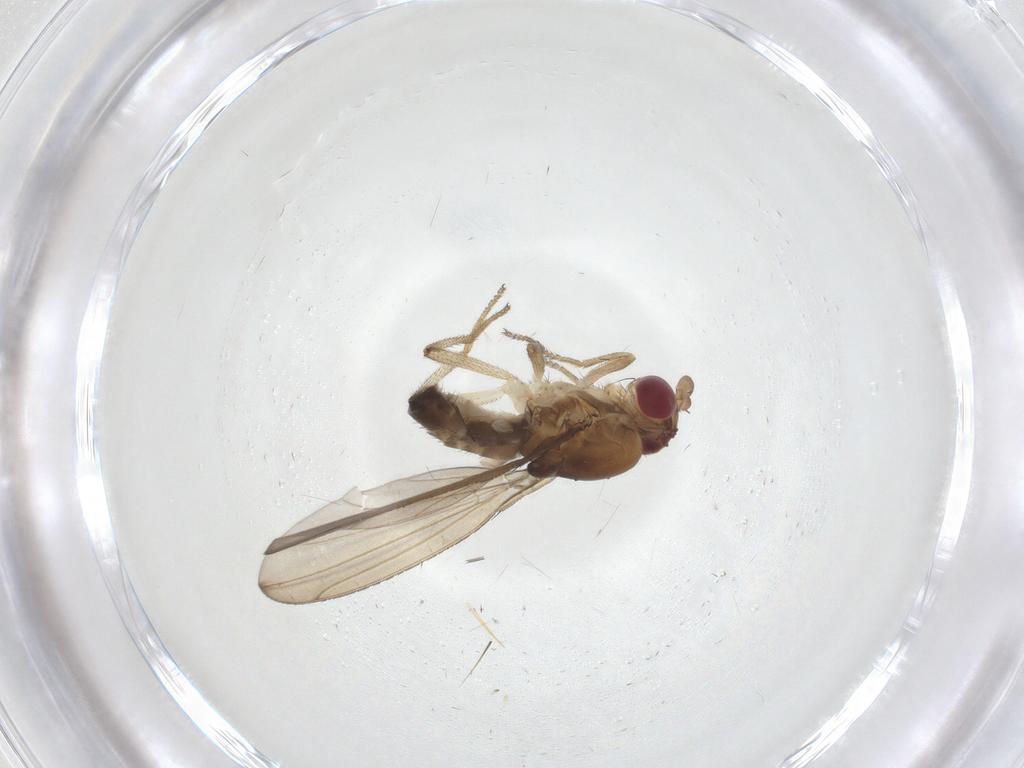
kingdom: Animalia
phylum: Arthropoda
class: Insecta
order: Diptera
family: Clusiidae
